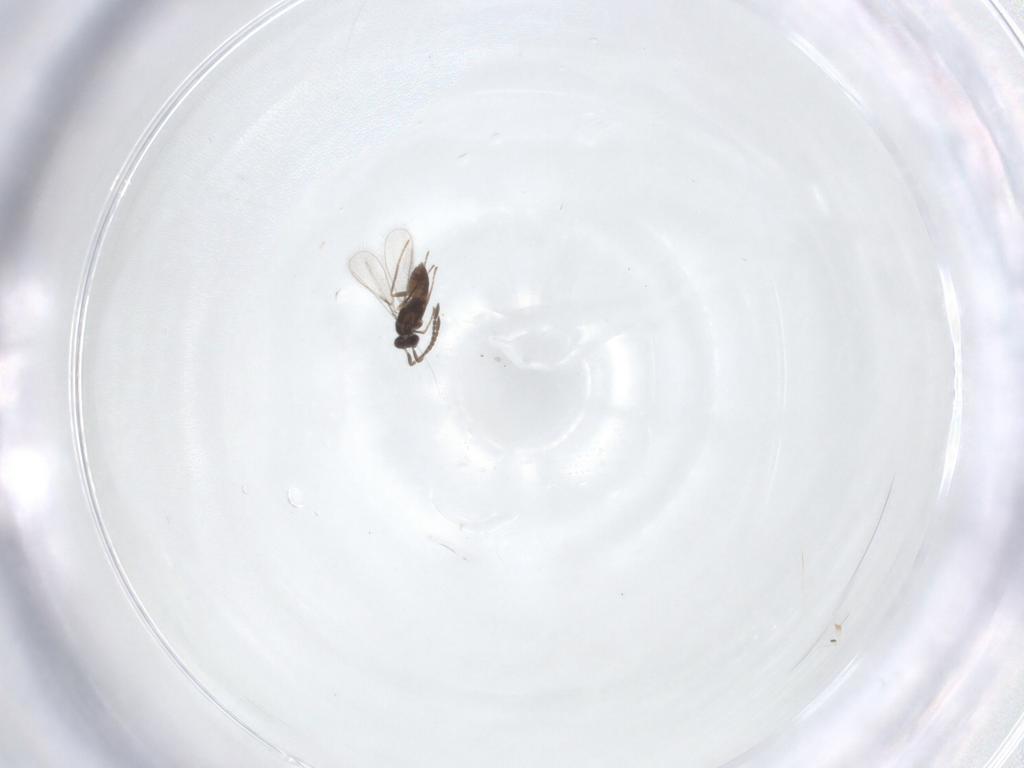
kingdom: Animalia
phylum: Arthropoda
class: Insecta
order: Hymenoptera
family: Mymaridae
